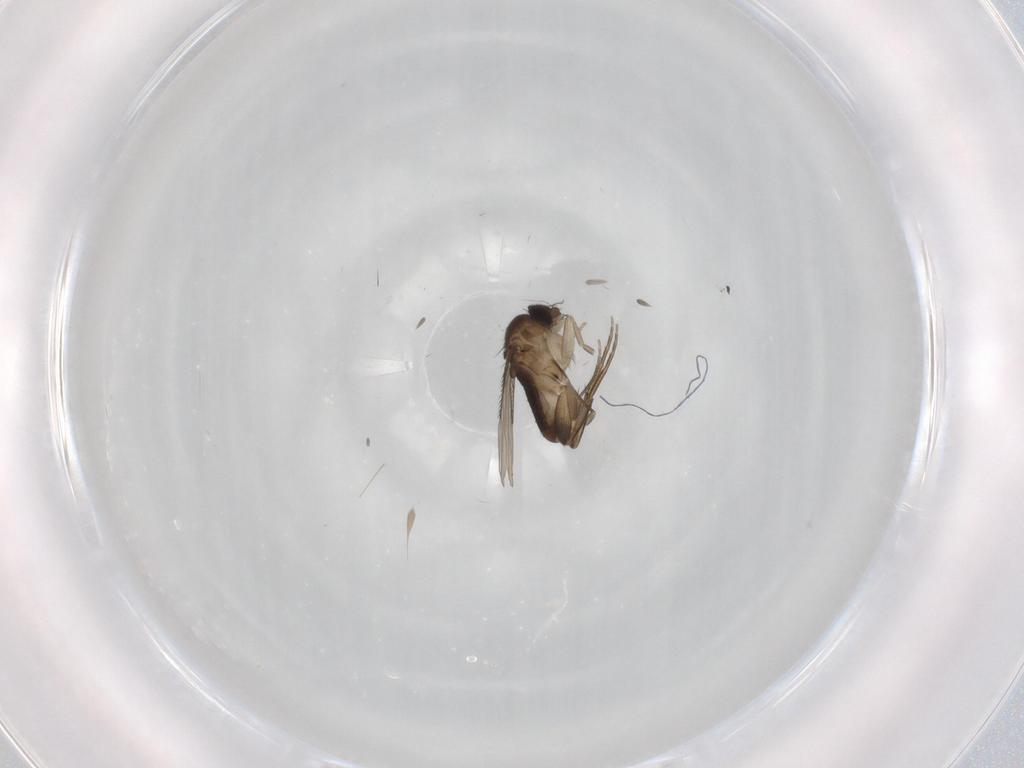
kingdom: Animalia
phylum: Arthropoda
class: Insecta
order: Diptera
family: Phoridae
